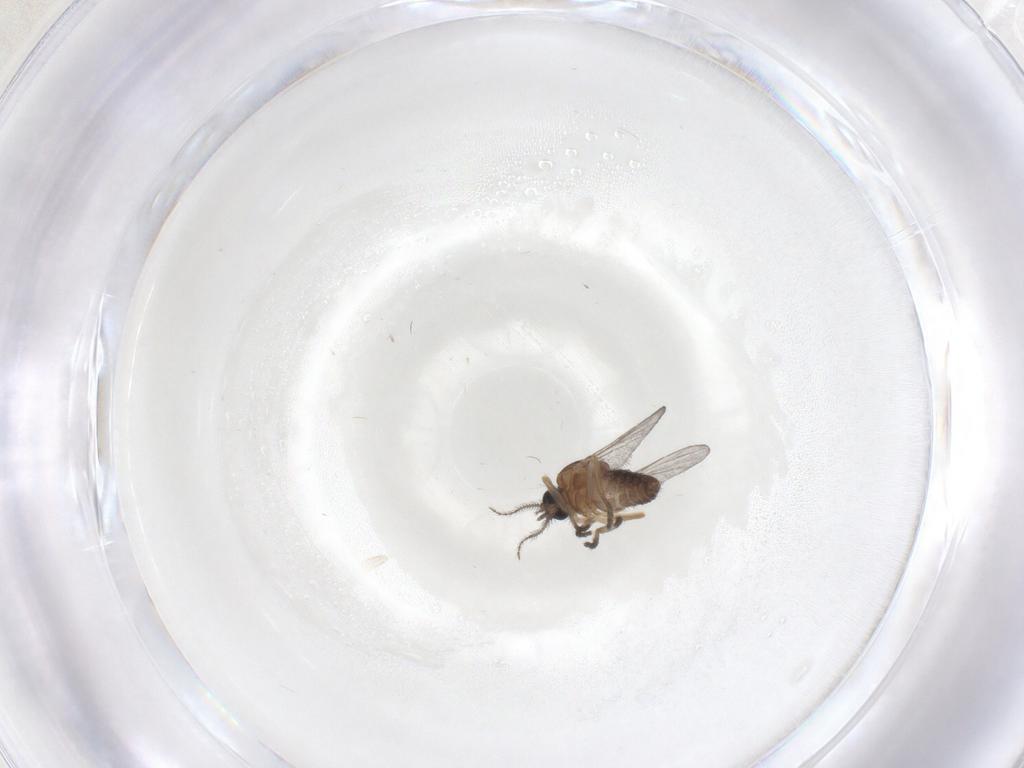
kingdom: Animalia
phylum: Arthropoda
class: Insecta
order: Diptera
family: Ceratopogonidae
